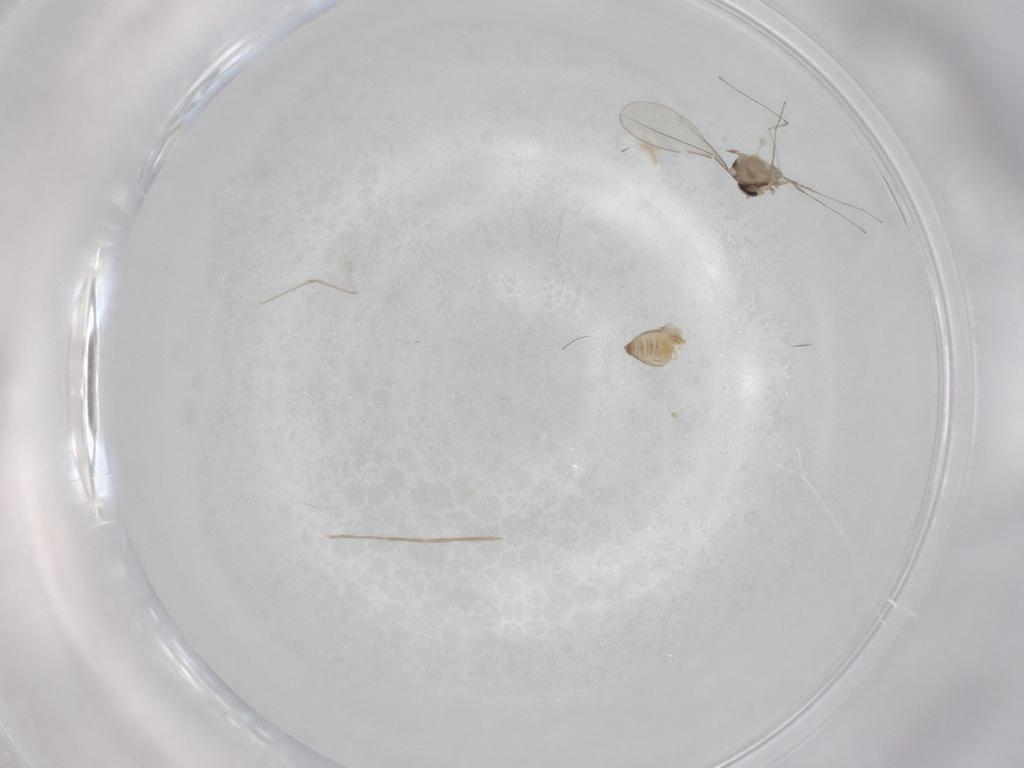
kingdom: Animalia
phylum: Arthropoda
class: Insecta
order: Diptera
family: Cecidomyiidae
